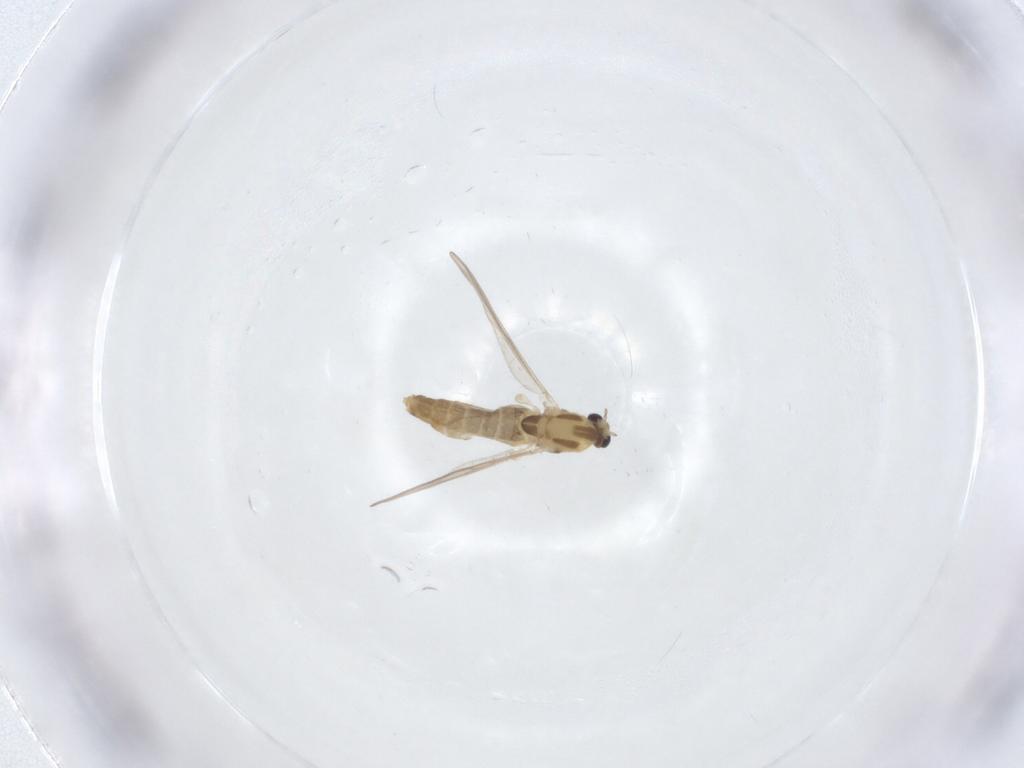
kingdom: Animalia
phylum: Arthropoda
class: Insecta
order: Diptera
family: Chironomidae
